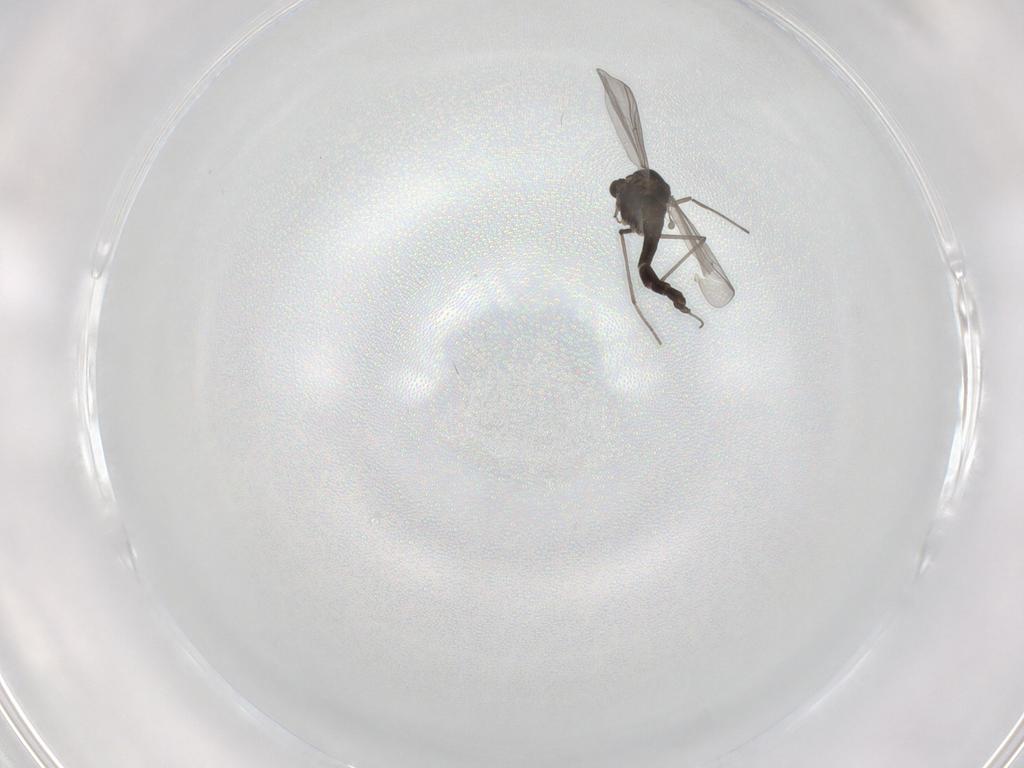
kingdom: Animalia
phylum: Arthropoda
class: Insecta
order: Diptera
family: Chironomidae
